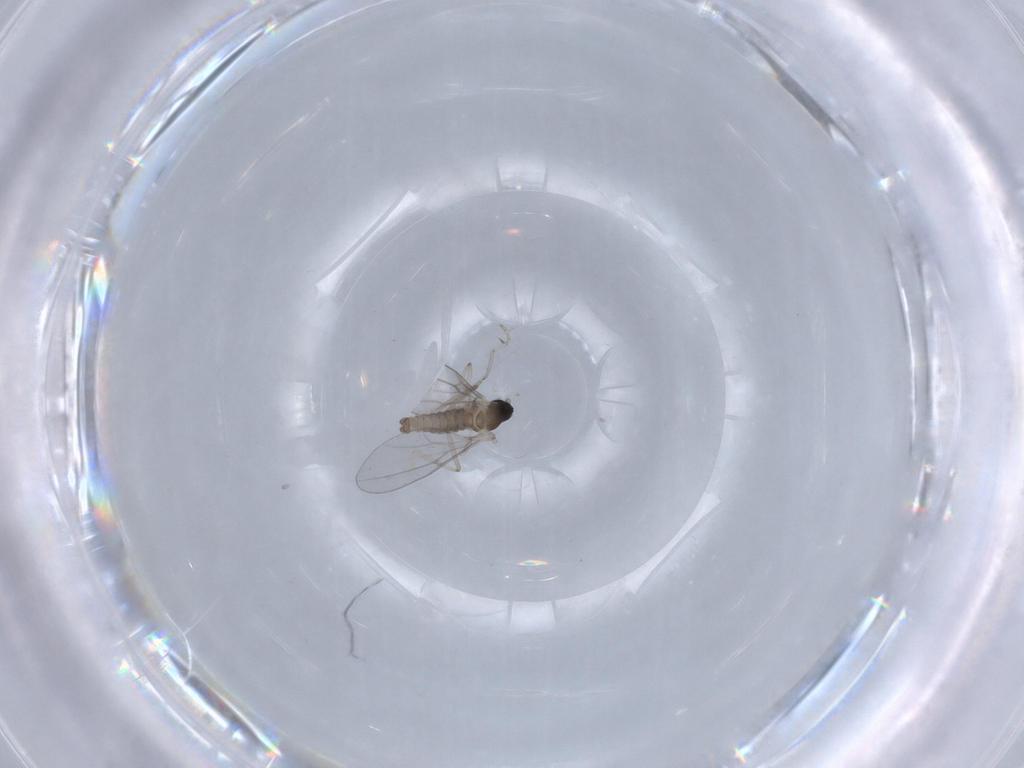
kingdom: Animalia
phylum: Arthropoda
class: Insecta
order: Diptera
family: Cecidomyiidae
